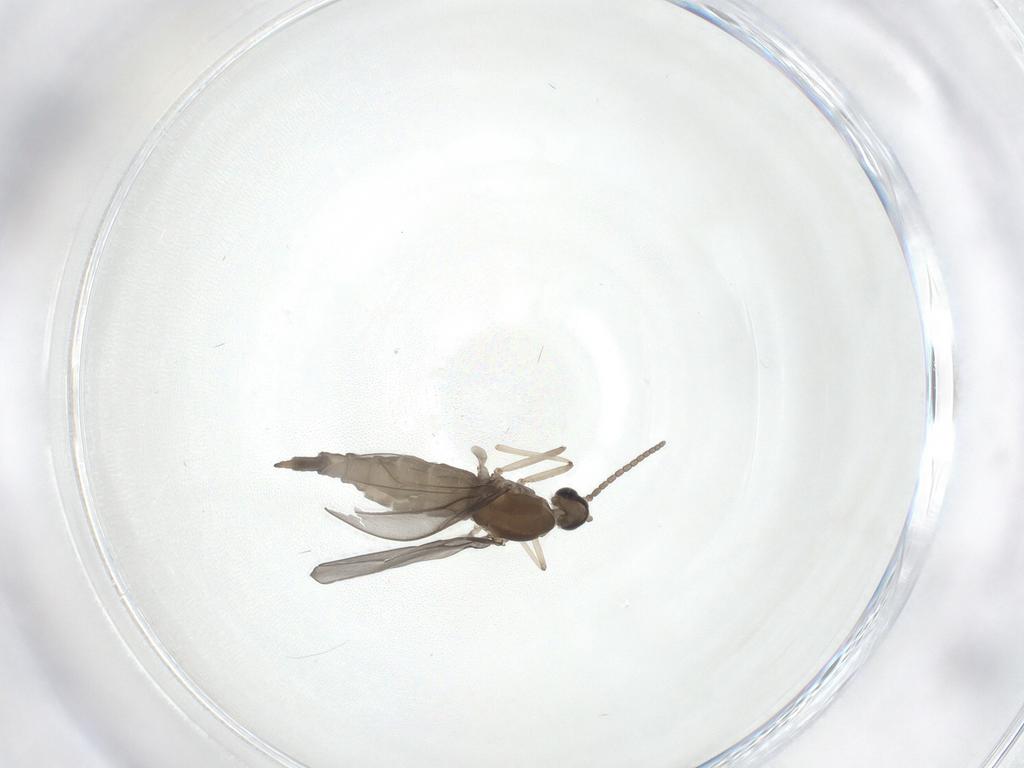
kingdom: Animalia
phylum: Arthropoda
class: Insecta
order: Diptera
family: Cecidomyiidae
